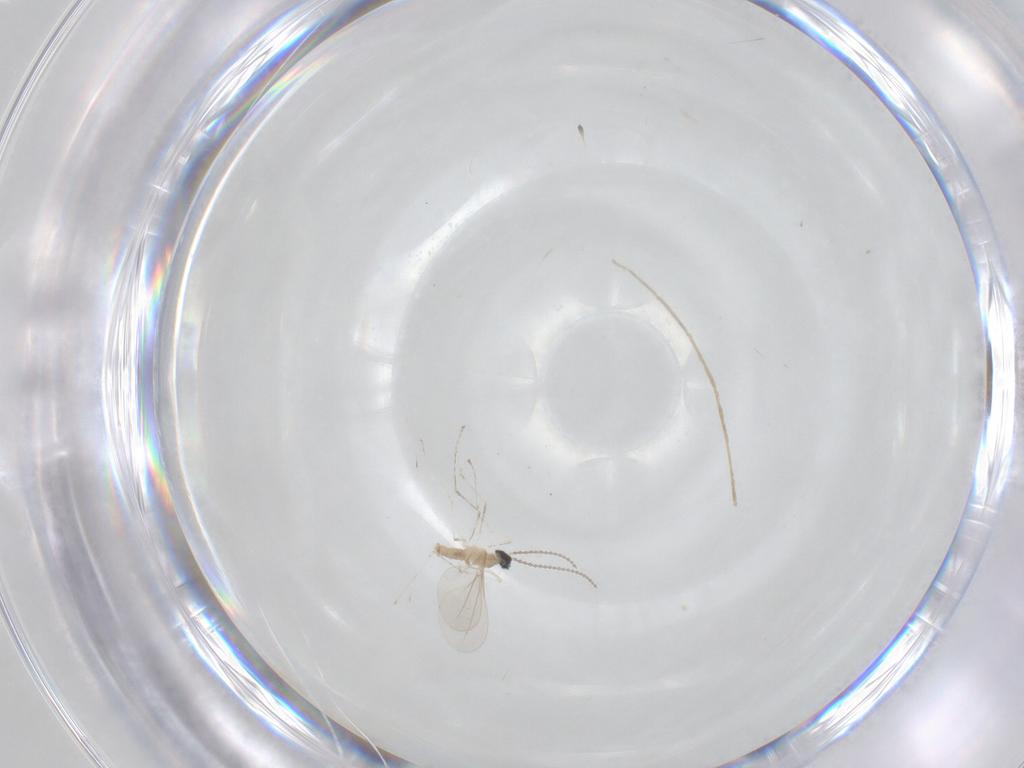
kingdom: Animalia
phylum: Arthropoda
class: Insecta
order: Diptera
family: Cecidomyiidae
